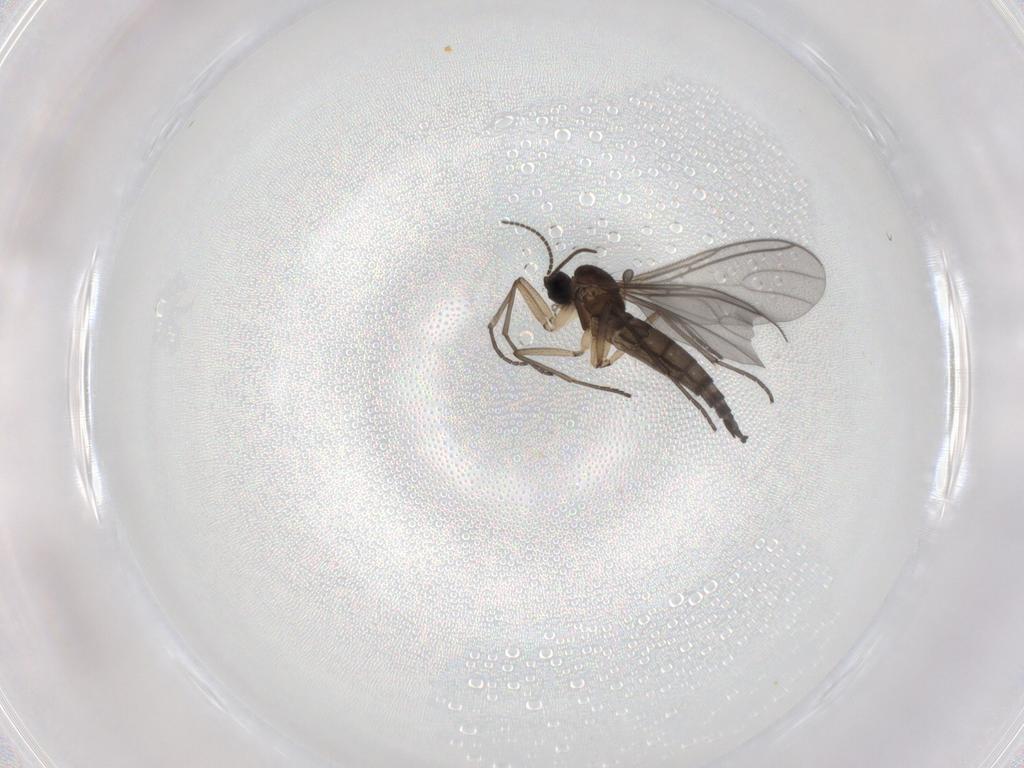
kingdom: Animalia
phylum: Arthropoda
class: Insecta
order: Diptera
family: Sciaridae
